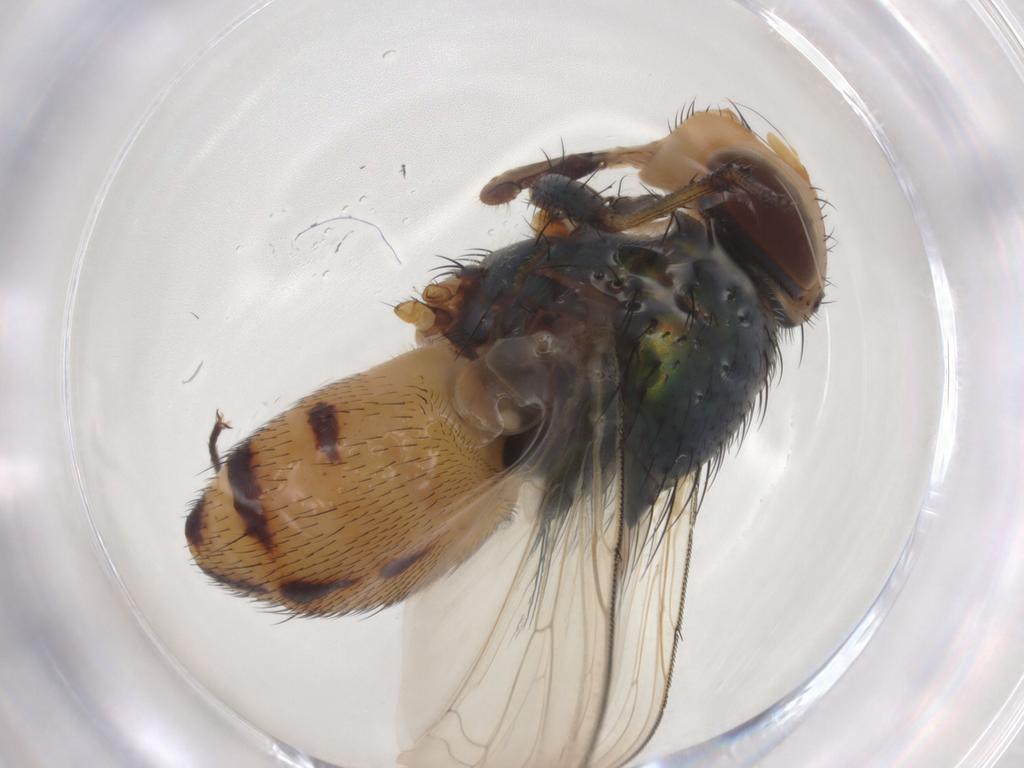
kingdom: Animalia
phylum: Arthropoda
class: Insecta
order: Diptera
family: Calliphoridae
